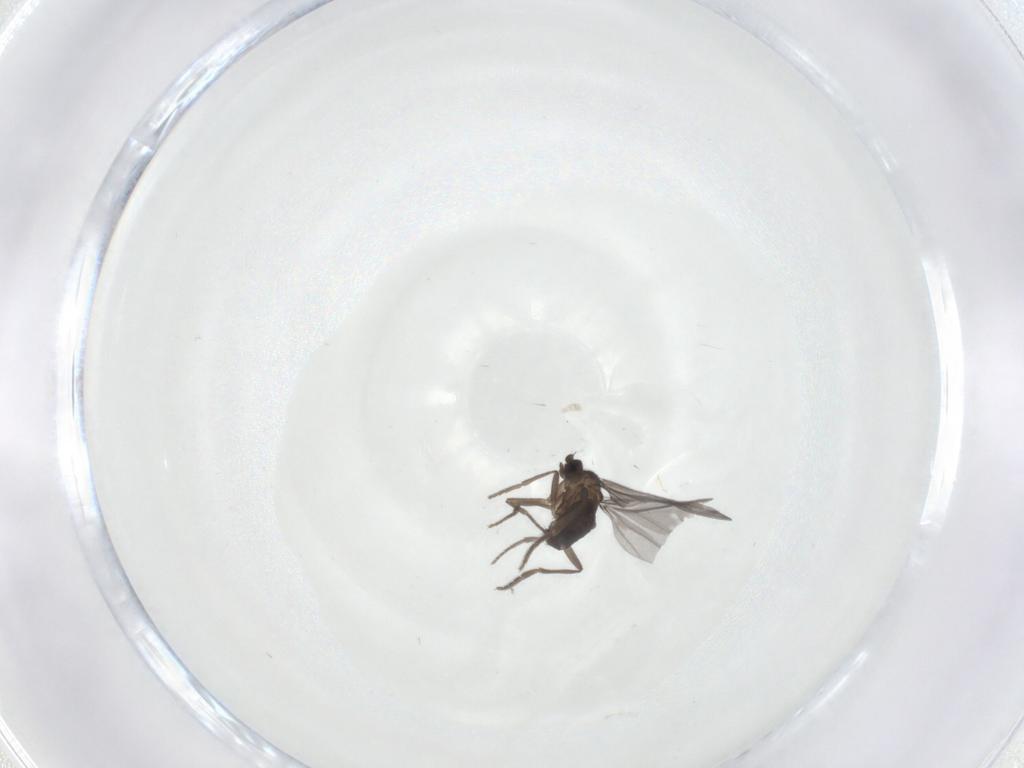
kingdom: Animalia
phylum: Arthropoda
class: Insecta
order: Diptera
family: Phoridae
